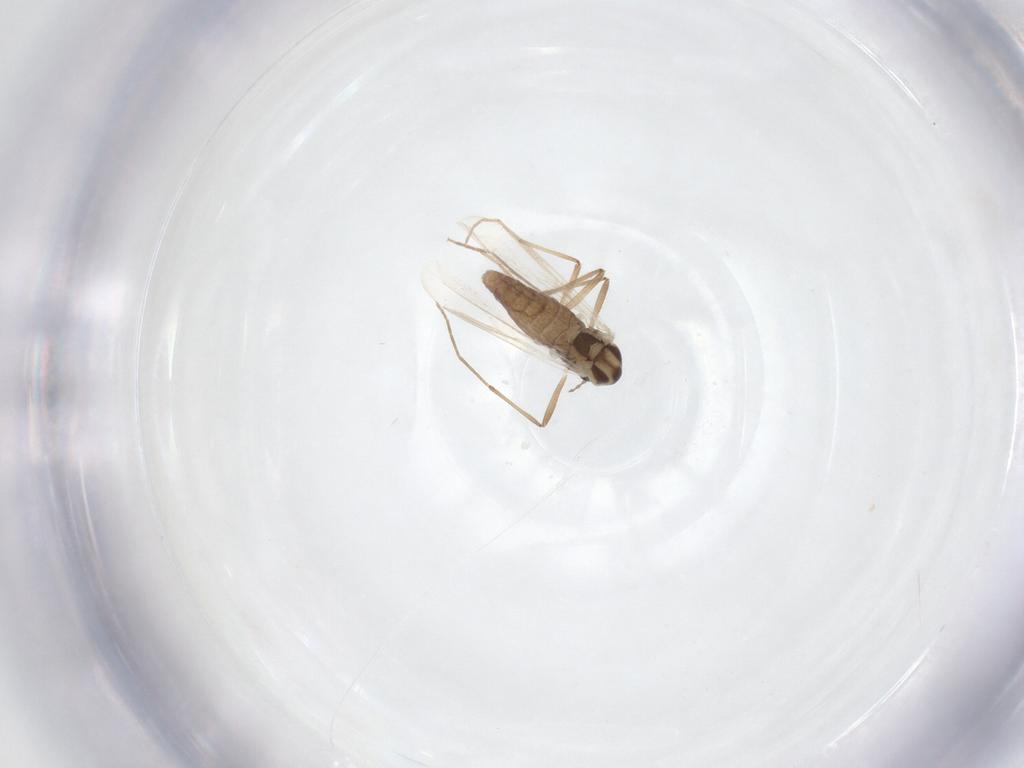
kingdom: Animalia
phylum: Arthropoda
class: Insecta
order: Diptera
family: Chironomidae
